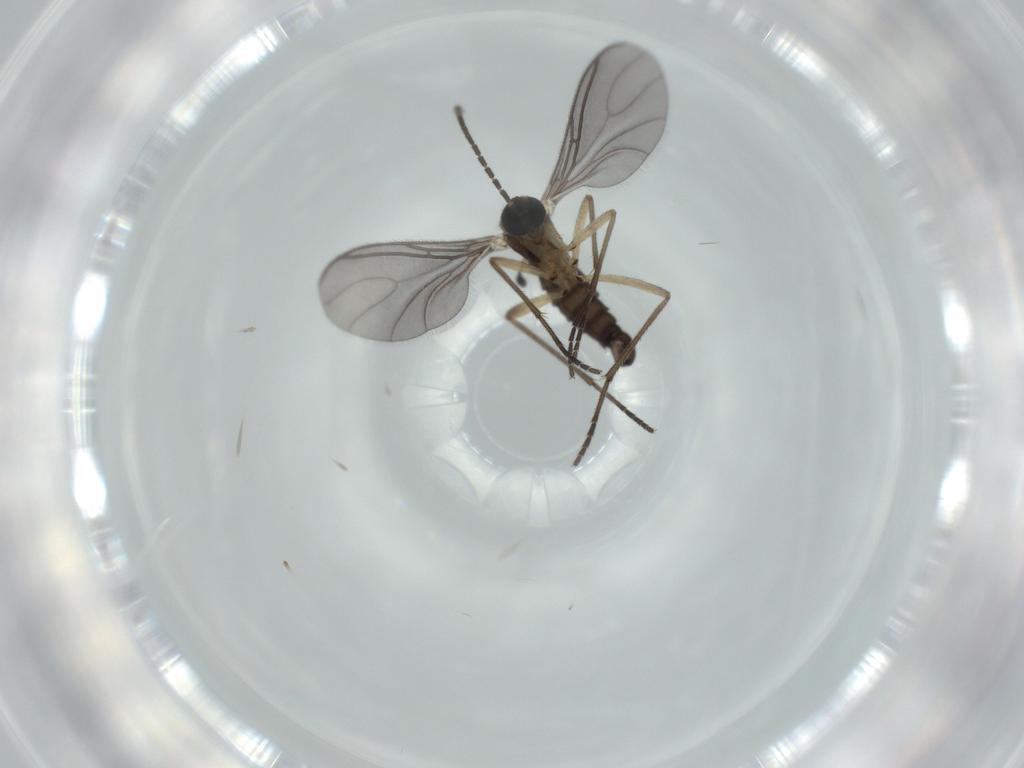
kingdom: Animalia
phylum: Arthropoda
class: Insecta
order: Diptera
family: Sciaridae
